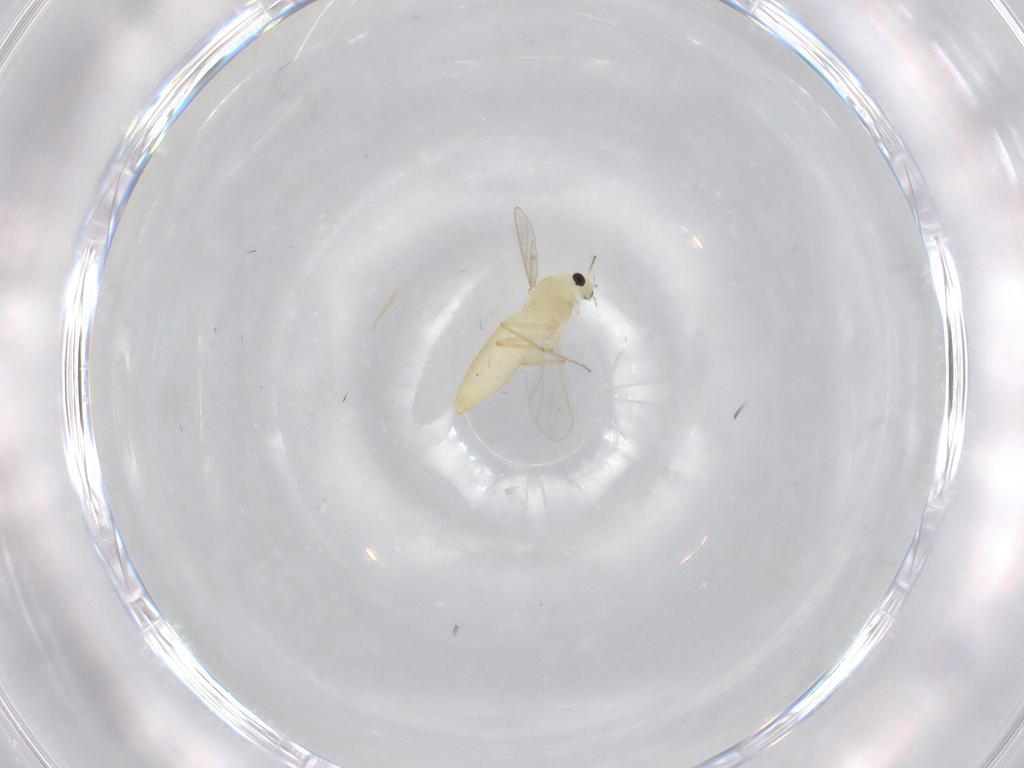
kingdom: Animalia
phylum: Arthropoda
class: Insecta
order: Diptera
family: Chironomidae
